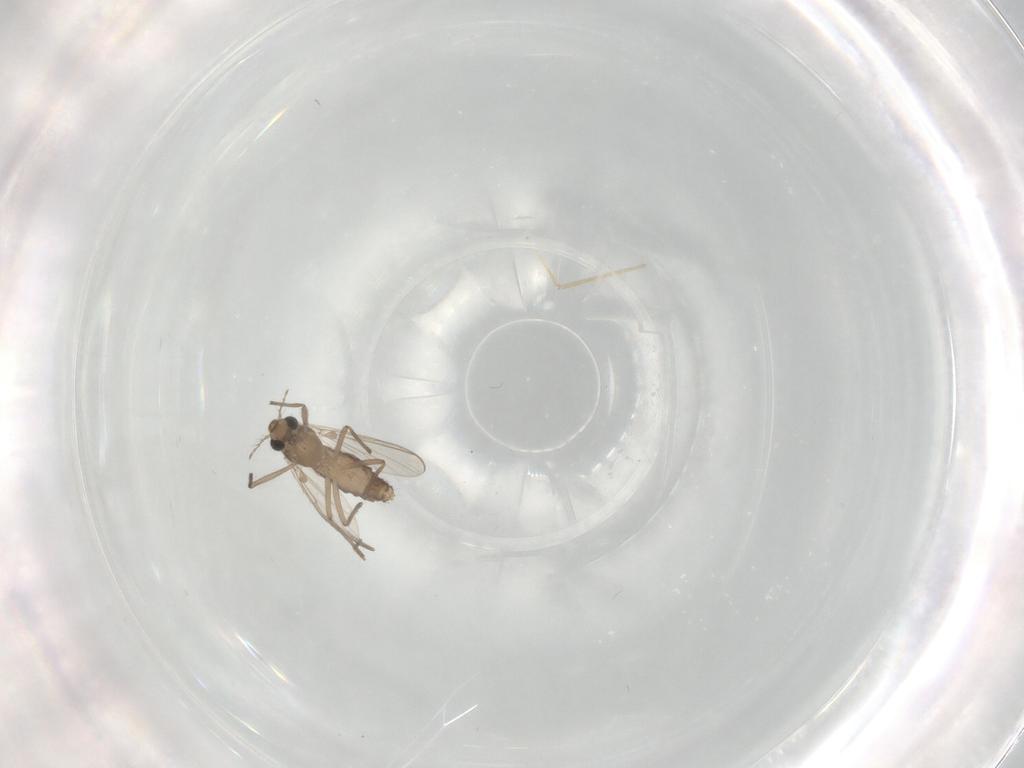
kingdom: Animalia
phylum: Arthropoda
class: Insecta
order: Diptera
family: Chironomidae
